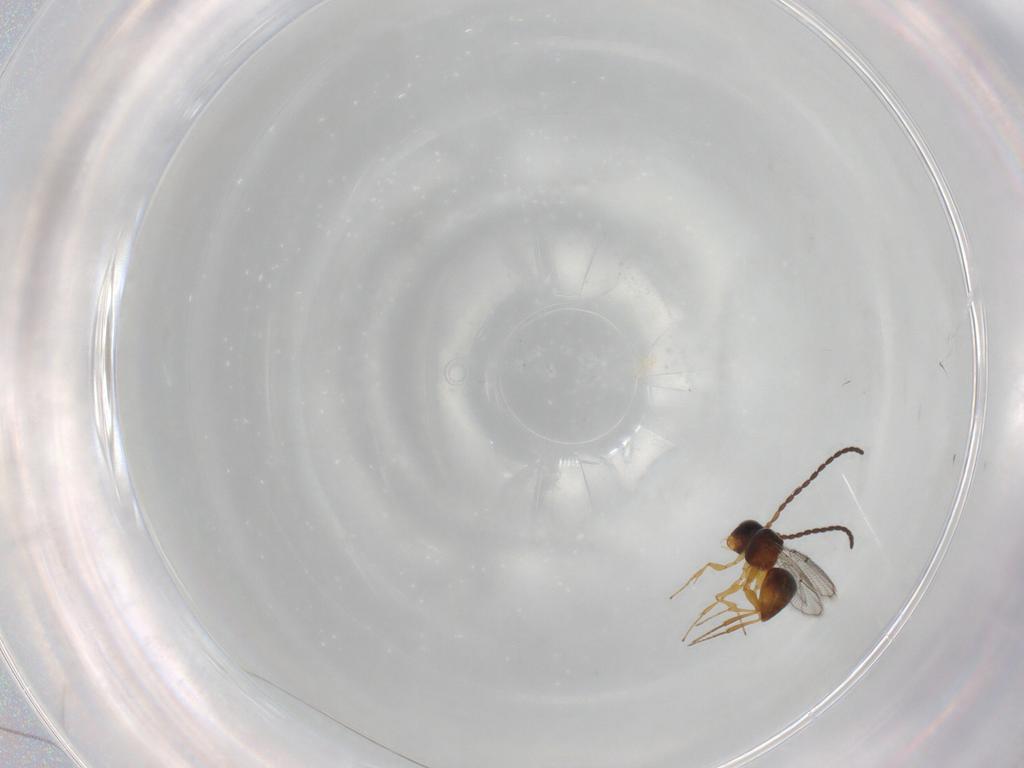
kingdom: Animalia
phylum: Arthropoda
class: Insecta
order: Hymenoptera
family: Figitidae
